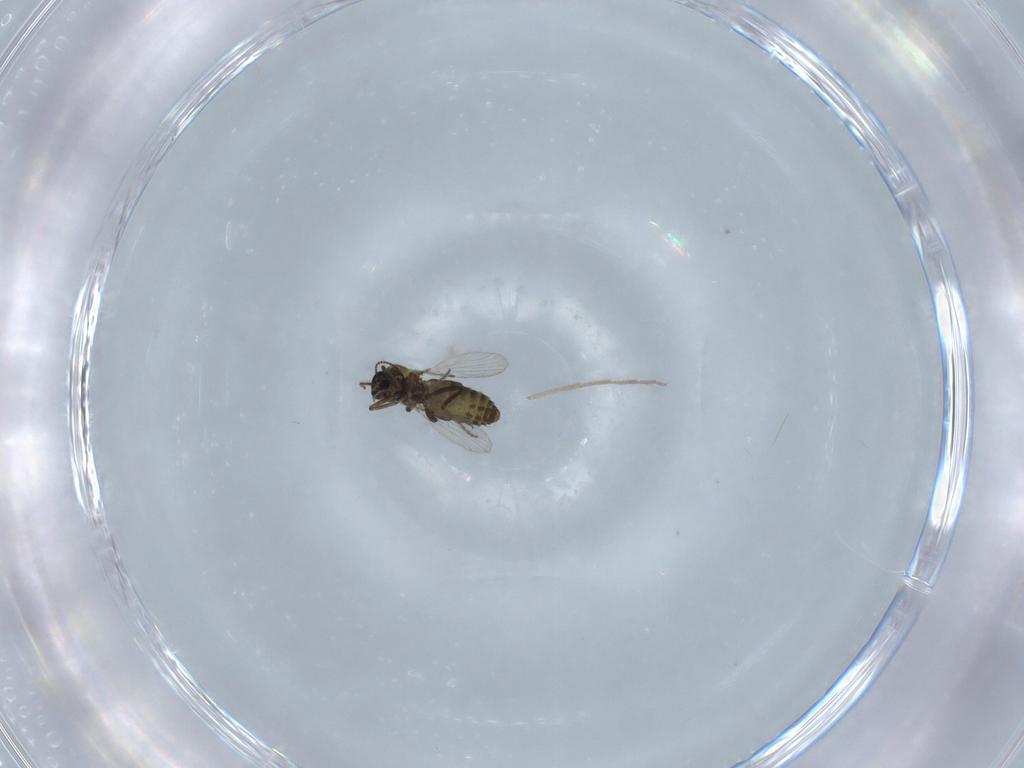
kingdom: Animalia
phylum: Arthropoda
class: Insecta
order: Diptera
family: Ceratopogonidae
